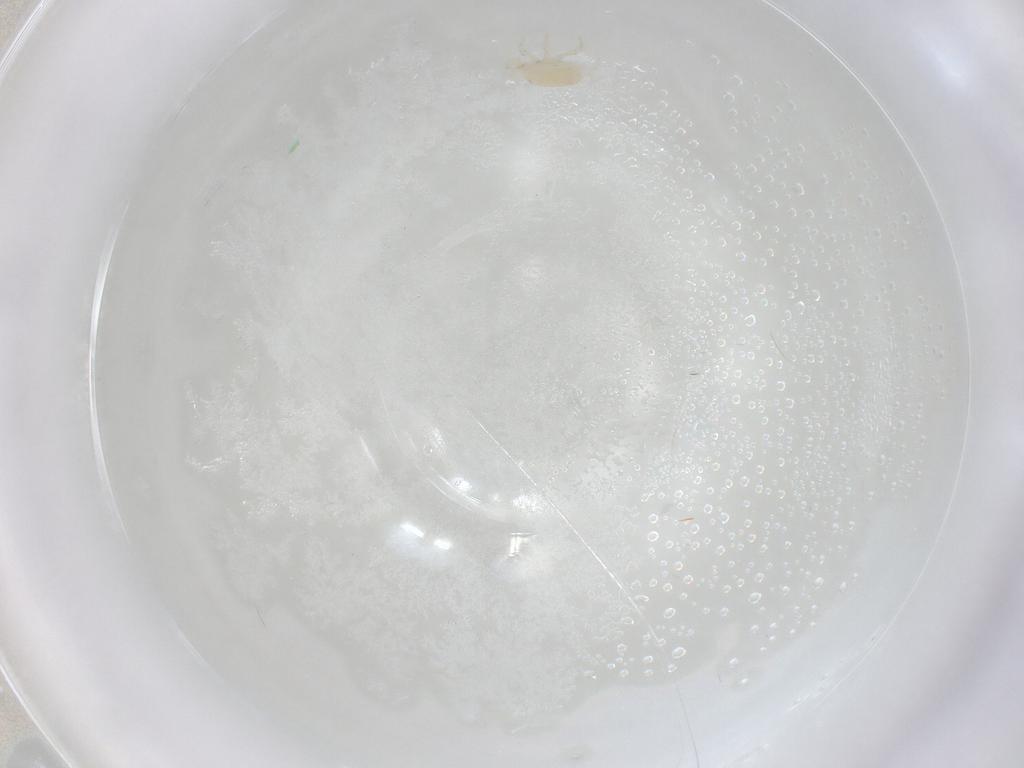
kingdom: Animalia
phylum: Arthropoda
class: Arachnida
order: Mesostigmata
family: Melicharidae
